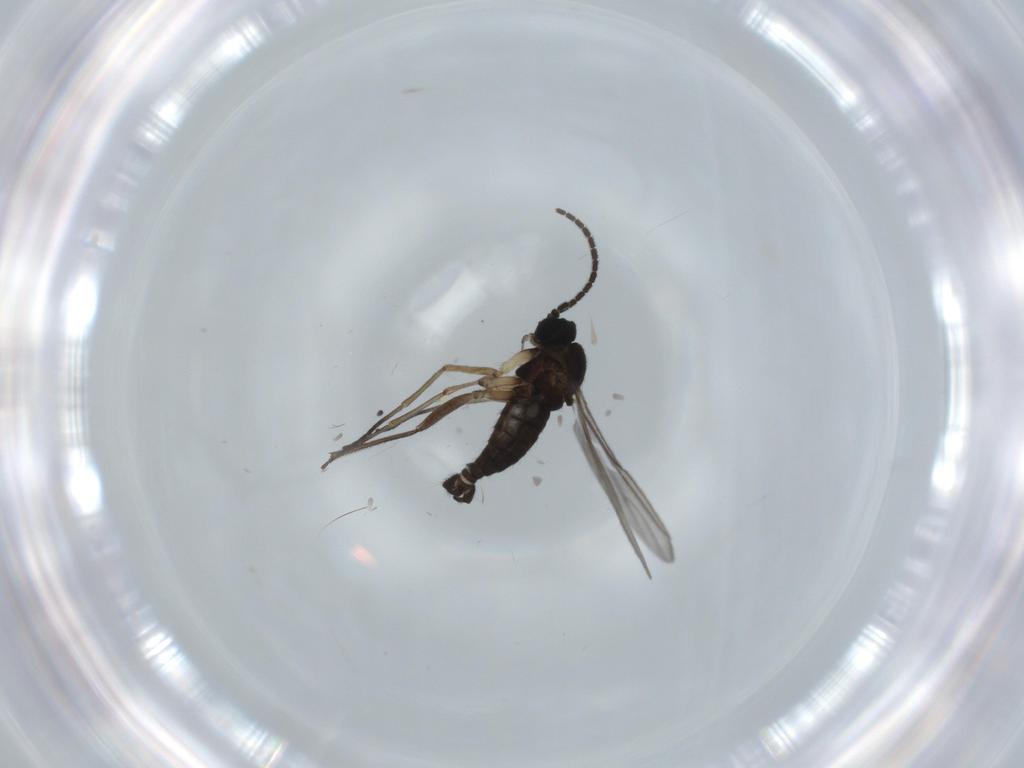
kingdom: Animalia
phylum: Arthropoda
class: Insecta
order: Diptera
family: Sciaridae
